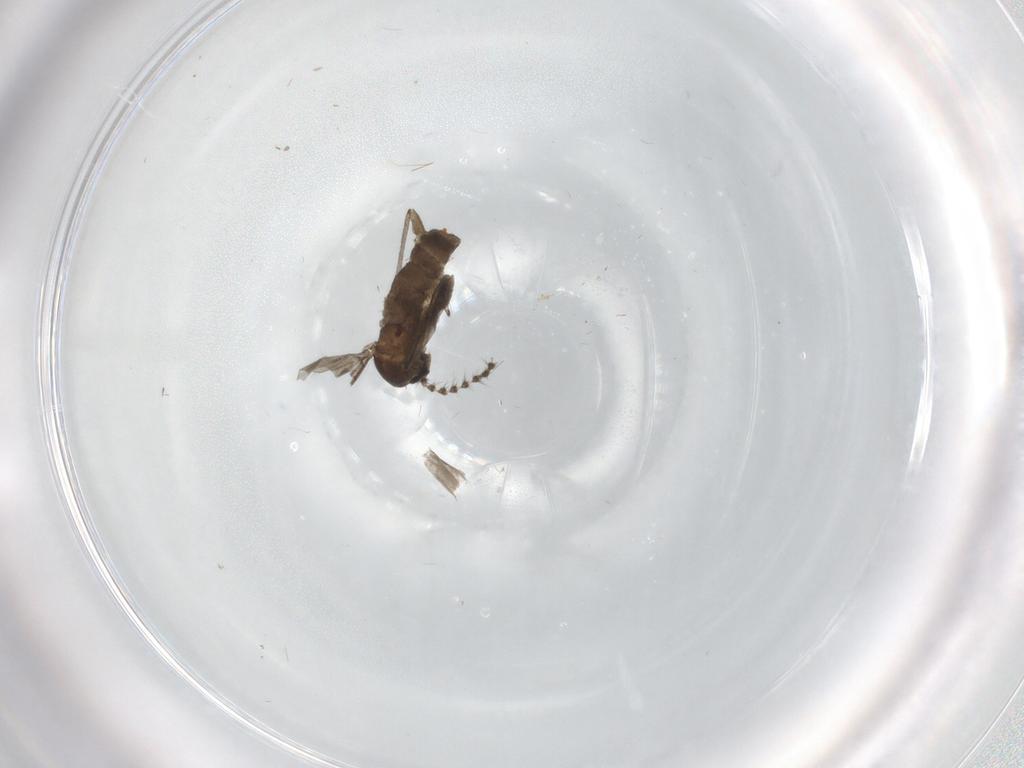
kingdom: Animalia
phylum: Arthropoda
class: Insecta
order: Diptera
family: Sciaridae
